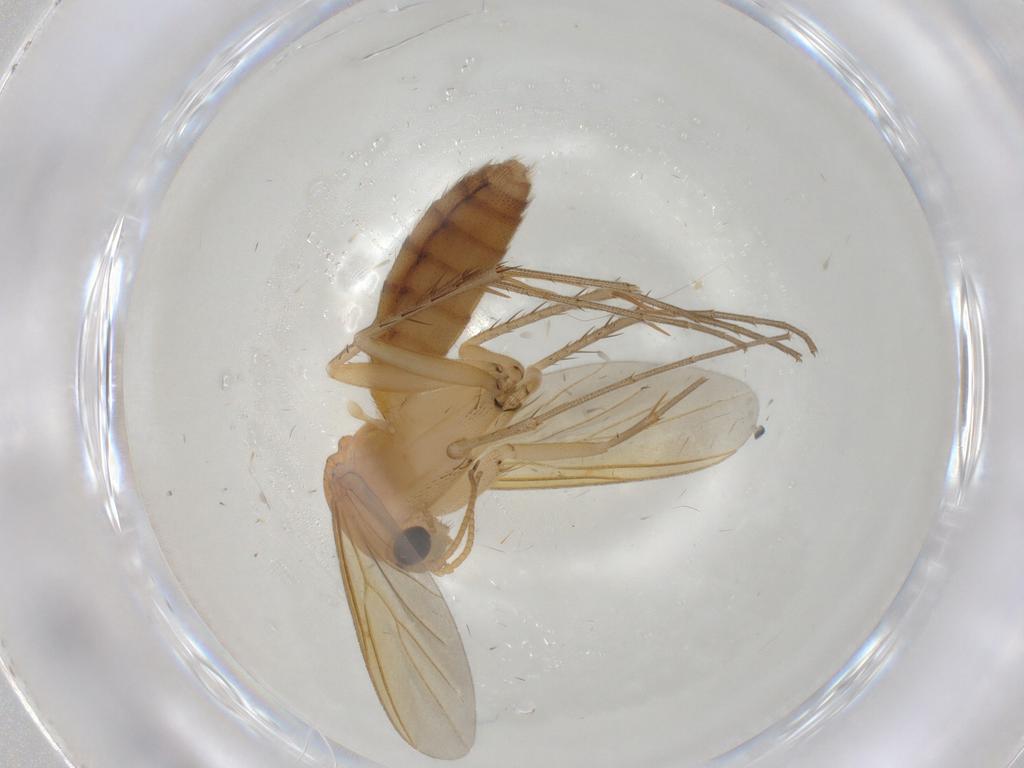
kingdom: Animalia
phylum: Arthropoda
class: Insecta
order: Diptera
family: Mycetophilidae
